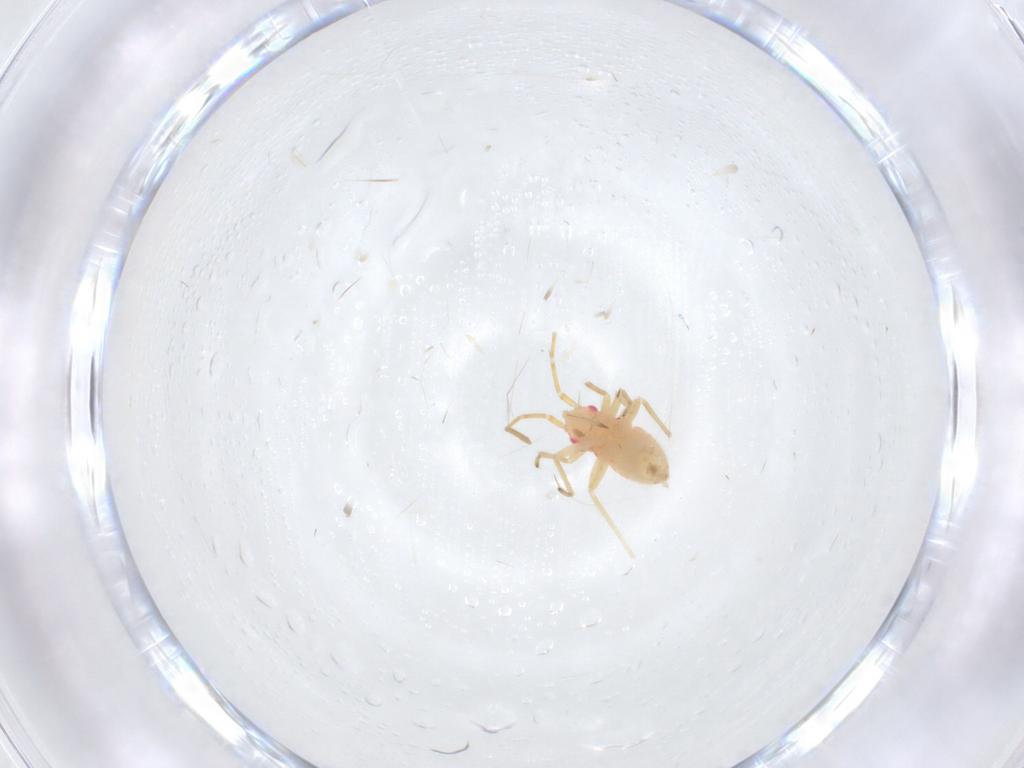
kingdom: Animalia
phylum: Arthropoda
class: Insecta
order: Hemiptera
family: Miridae
